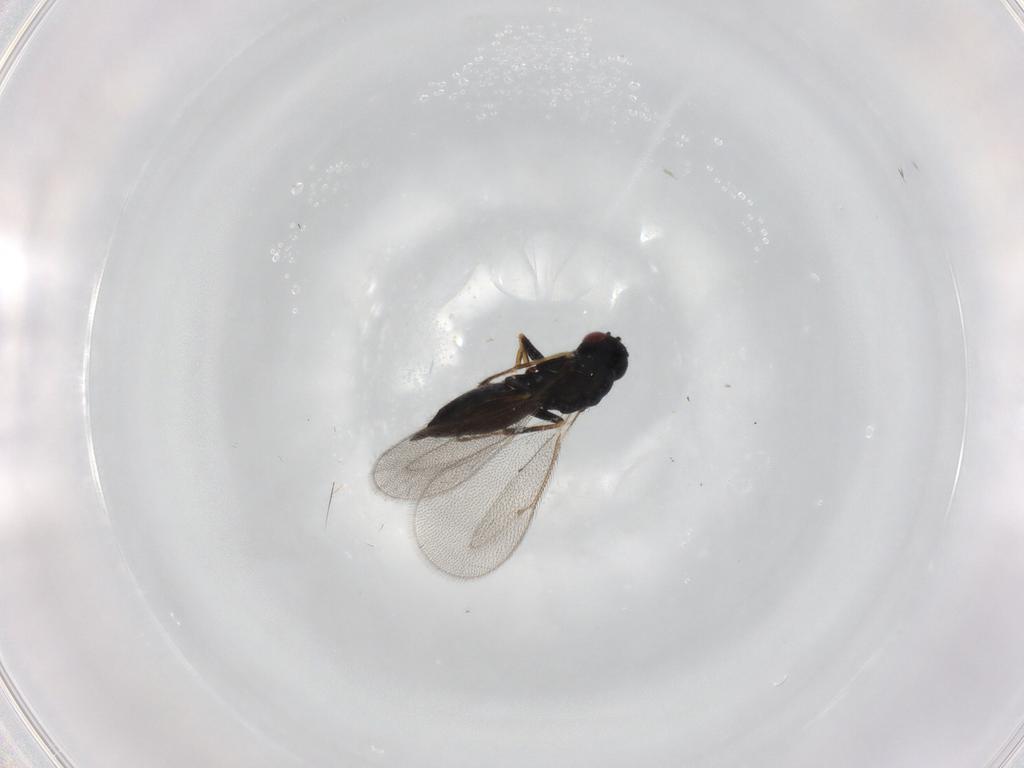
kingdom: Animalia
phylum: Arthropoda
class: Insecta
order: Hymenoptera
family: Eulophidae
